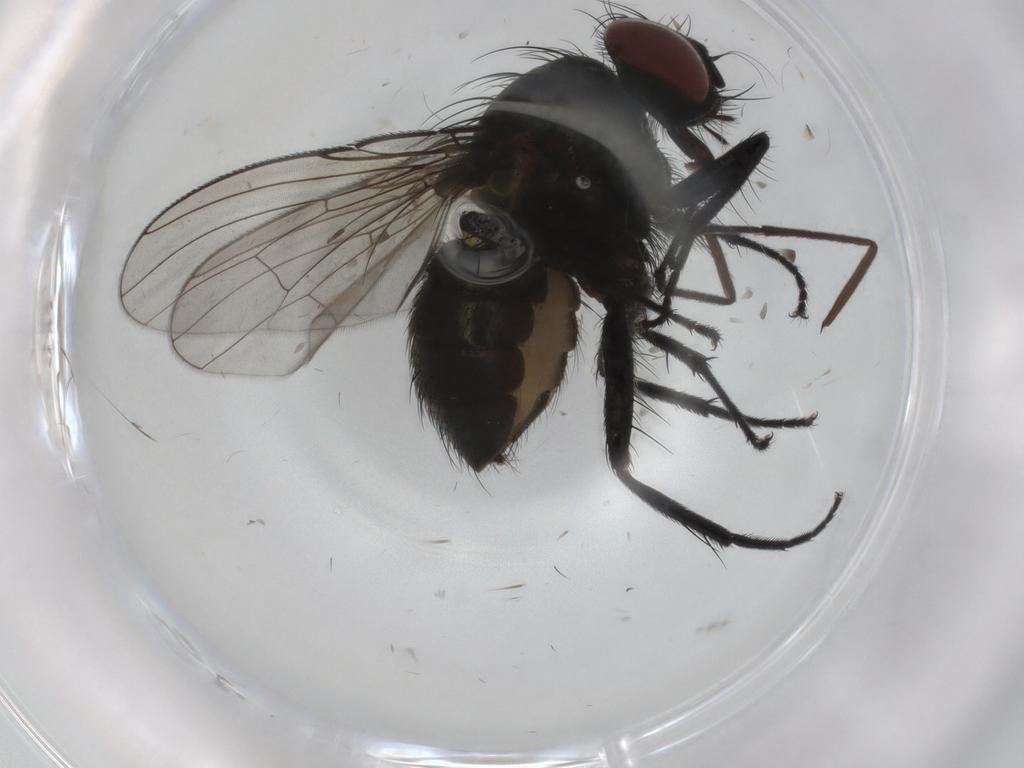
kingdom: Animalia
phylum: Arthropoda
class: Insecta
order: Diptera
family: Muscidae
